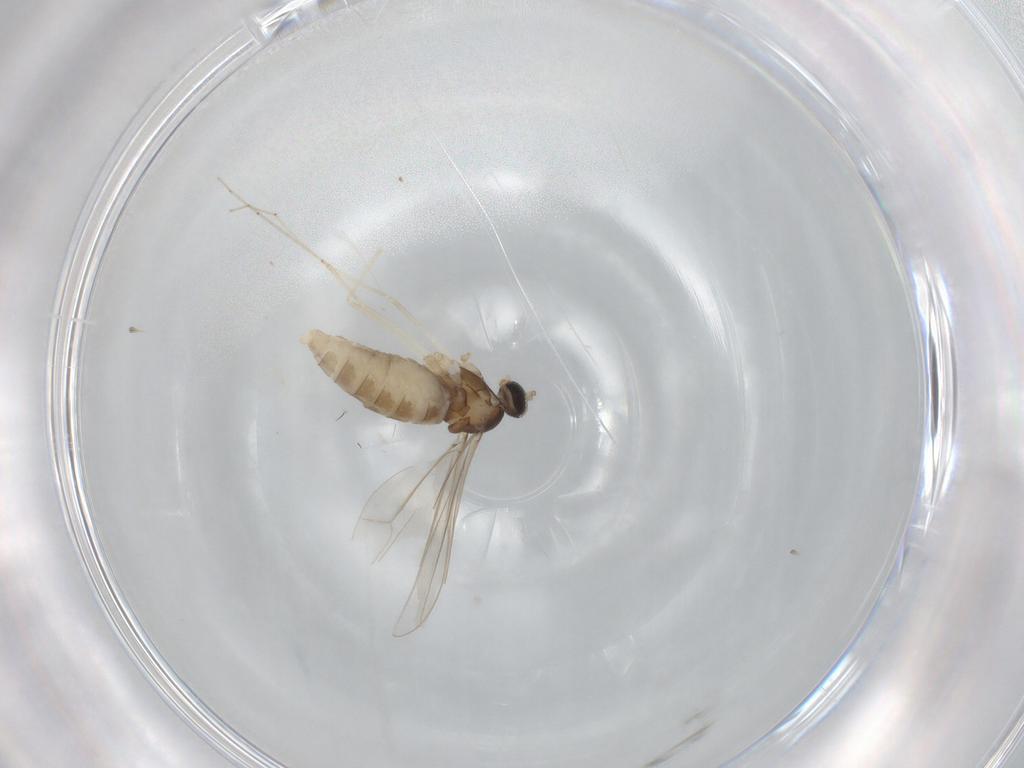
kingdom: Animalia
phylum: Arthropoda
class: Insecta
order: Diptera
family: Cecidomyiidae
